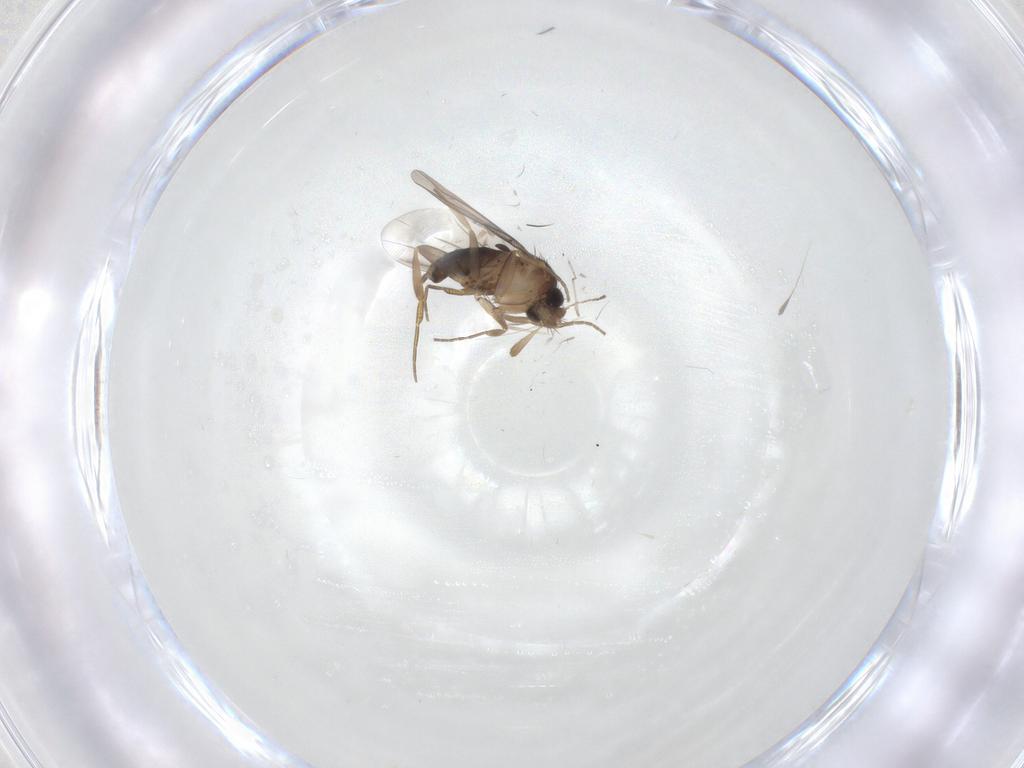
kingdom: Animalia
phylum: Arthropoda
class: Insecta
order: Diptera
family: Cecidomyiidae
